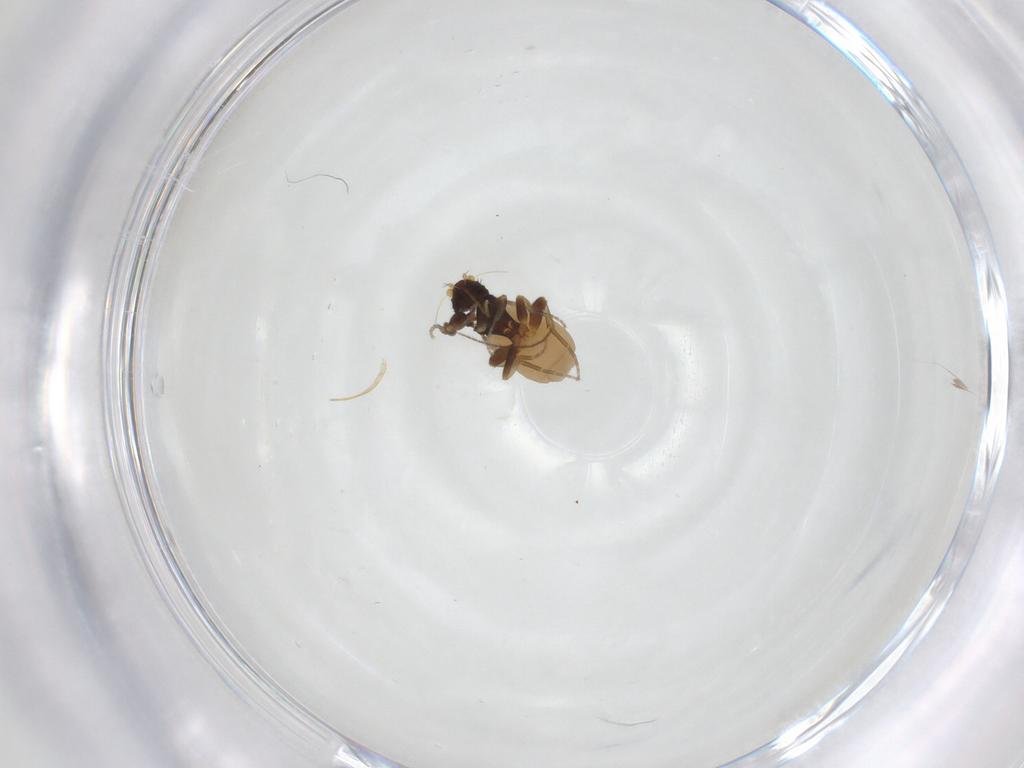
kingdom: Animalia
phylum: Arthropoda
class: Insecta
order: Diptera
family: Phoridae
